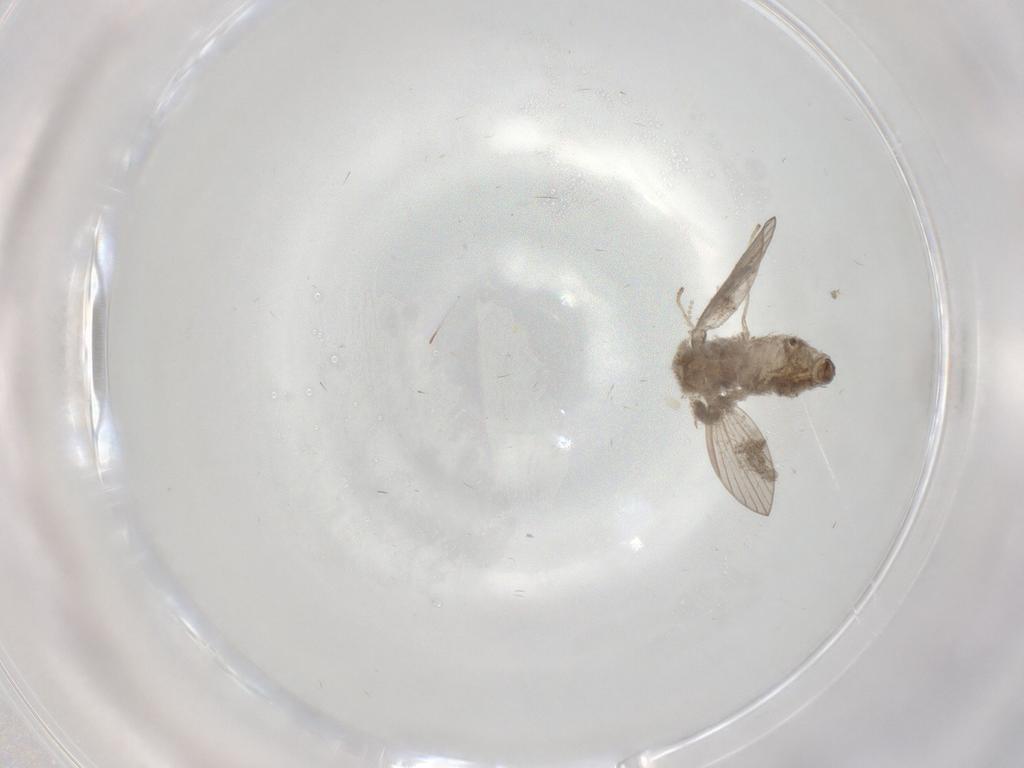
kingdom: Animalia
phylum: Arthropoda
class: Insecta
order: Diptera
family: Psychodidae
